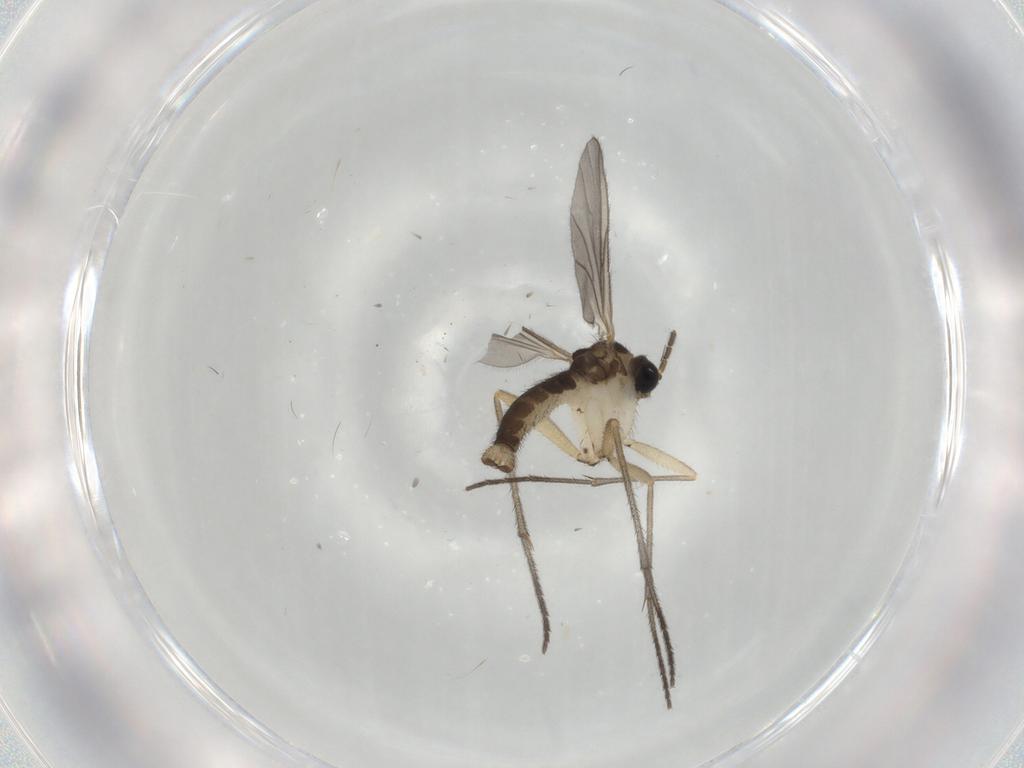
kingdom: Animalia
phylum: Arthropoda
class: Insecta
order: Diptera
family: Sciaridae
